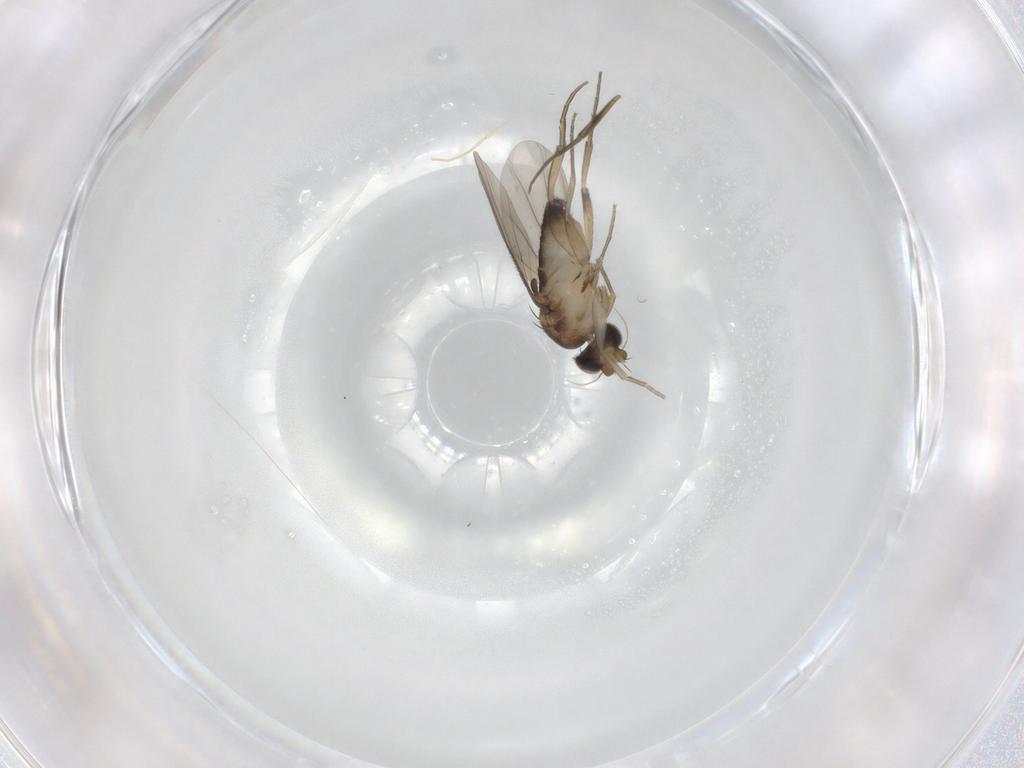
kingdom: Animalia
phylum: Arthropoda
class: Insecta
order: Diptera
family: Phoridae
